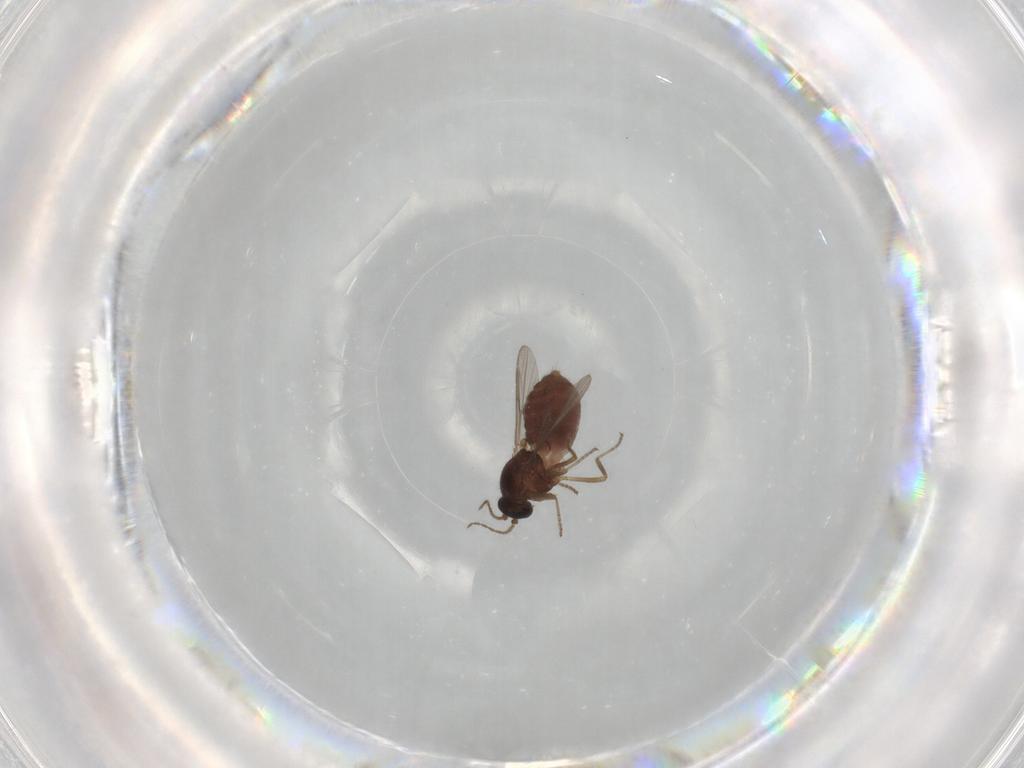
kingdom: Animalia
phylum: Arthropoda
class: Insecta
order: Diptera
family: Ceratopogonidae
